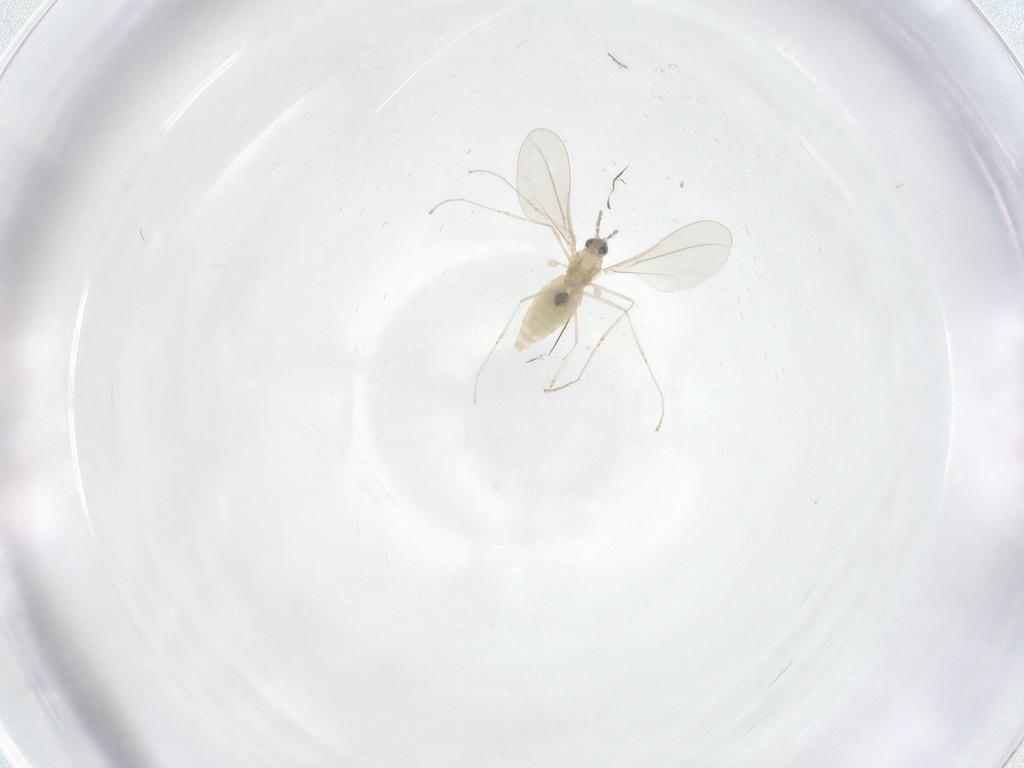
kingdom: Animalia
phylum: Arthropoda
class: Insecta
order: Diptera
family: Cecidomyiidae
